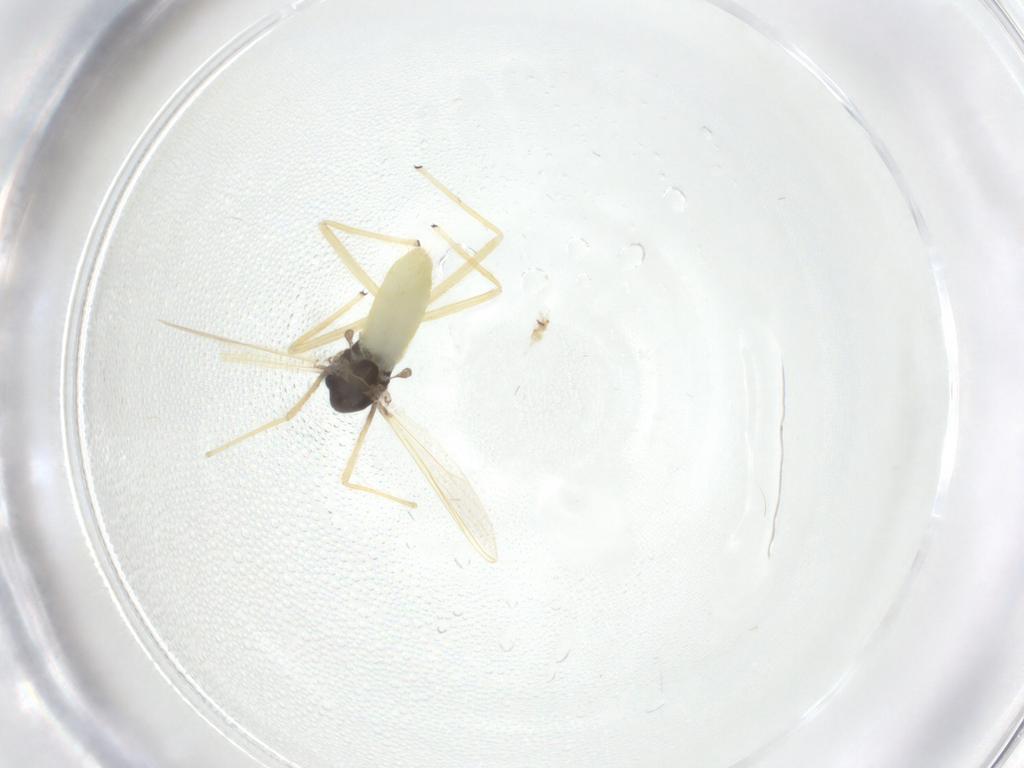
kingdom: Animalia
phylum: Arthropoda
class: Insecta
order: Diptera
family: Chironomidae
